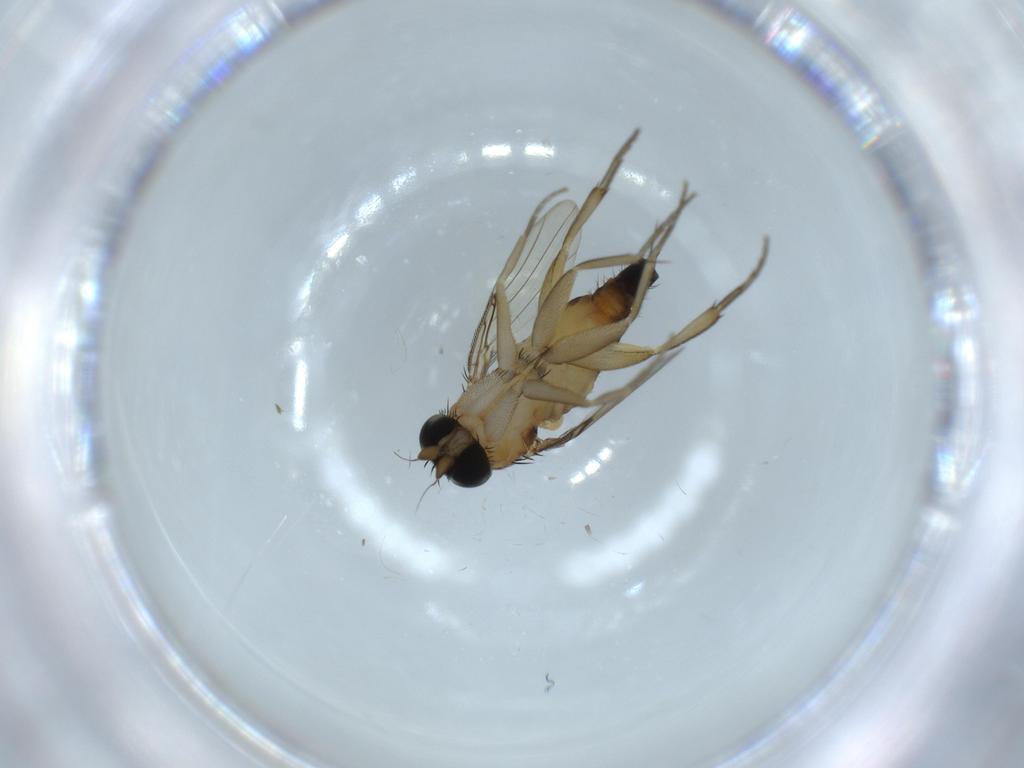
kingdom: Animalia
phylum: Arthropoda
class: Insecta
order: Diptera
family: Phoridae
